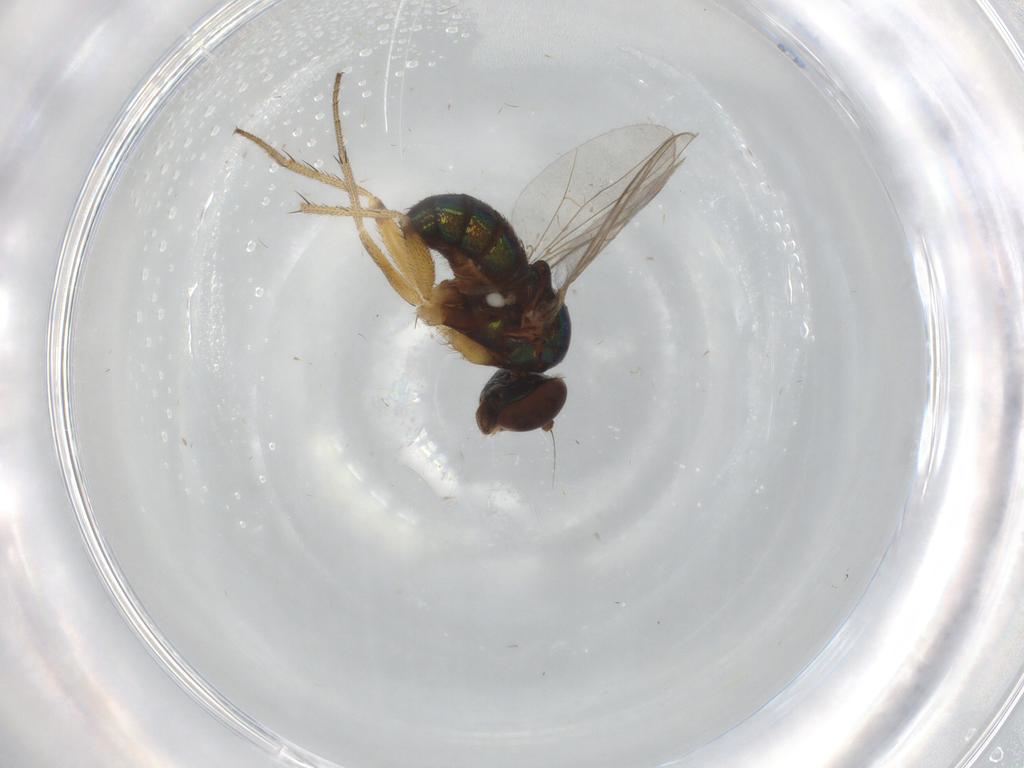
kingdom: Animalia
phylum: Arthropoda
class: Insecta
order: Diptera
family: Dolichopodidae
